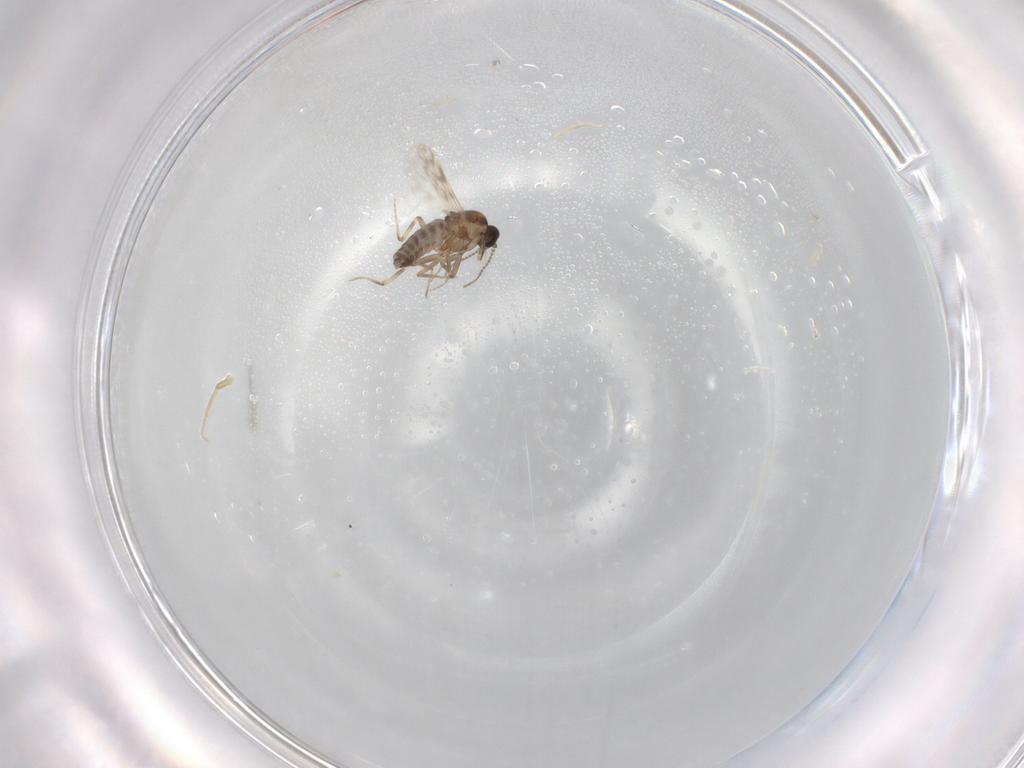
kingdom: Animalia
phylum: Arthropoda
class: Insecta
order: Diptera
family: Ceratopogonidae
